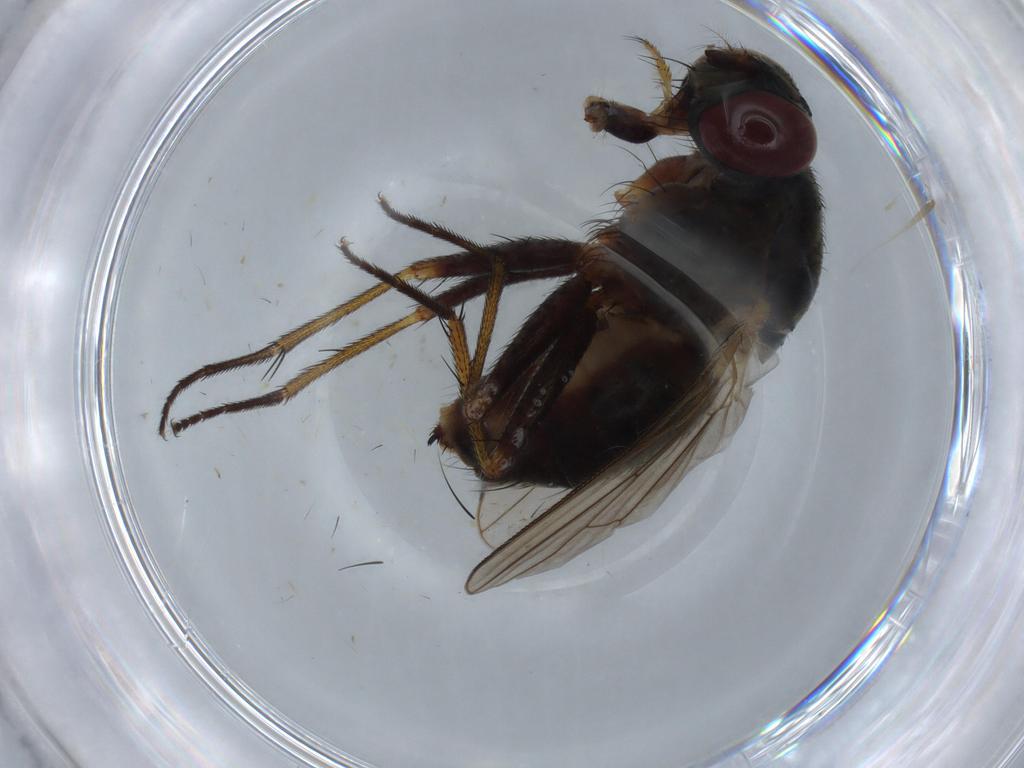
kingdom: Animalia
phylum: Arthropoda
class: Insecta
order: Diptera
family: Muscidae
